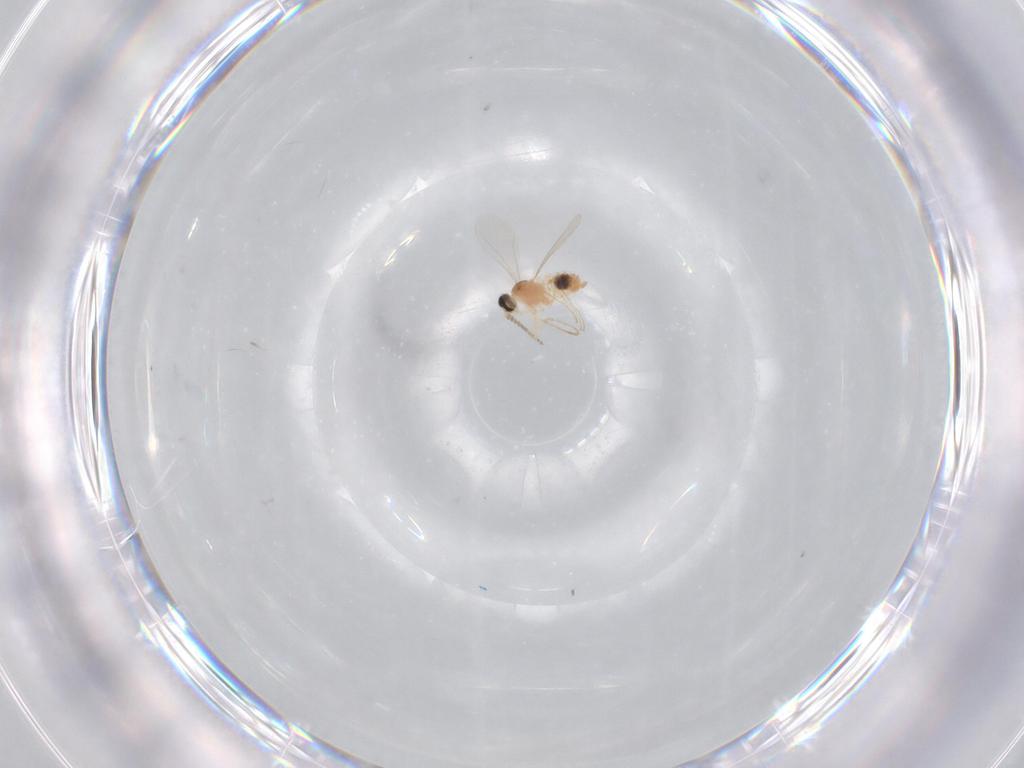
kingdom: Animalia
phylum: Arthropoda
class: Insecta
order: Diptera
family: Cecidomyiidae
